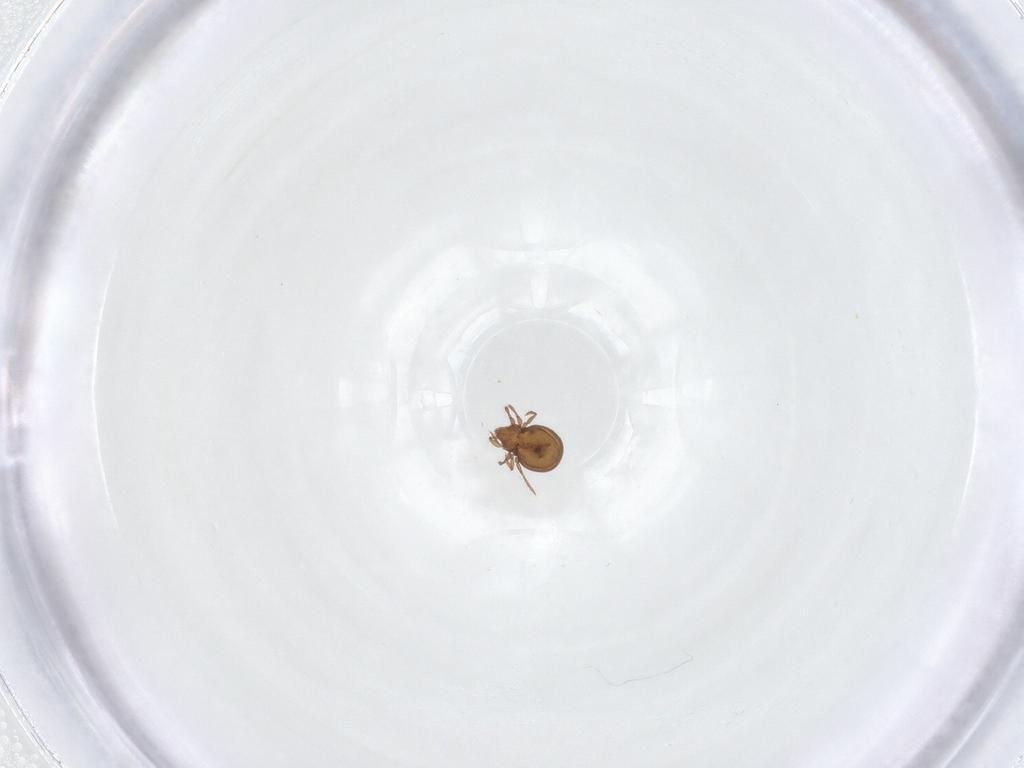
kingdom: Animalia
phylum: Arthropoda
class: Arachnida
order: Sarcoptiformes
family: Oribatulidae
